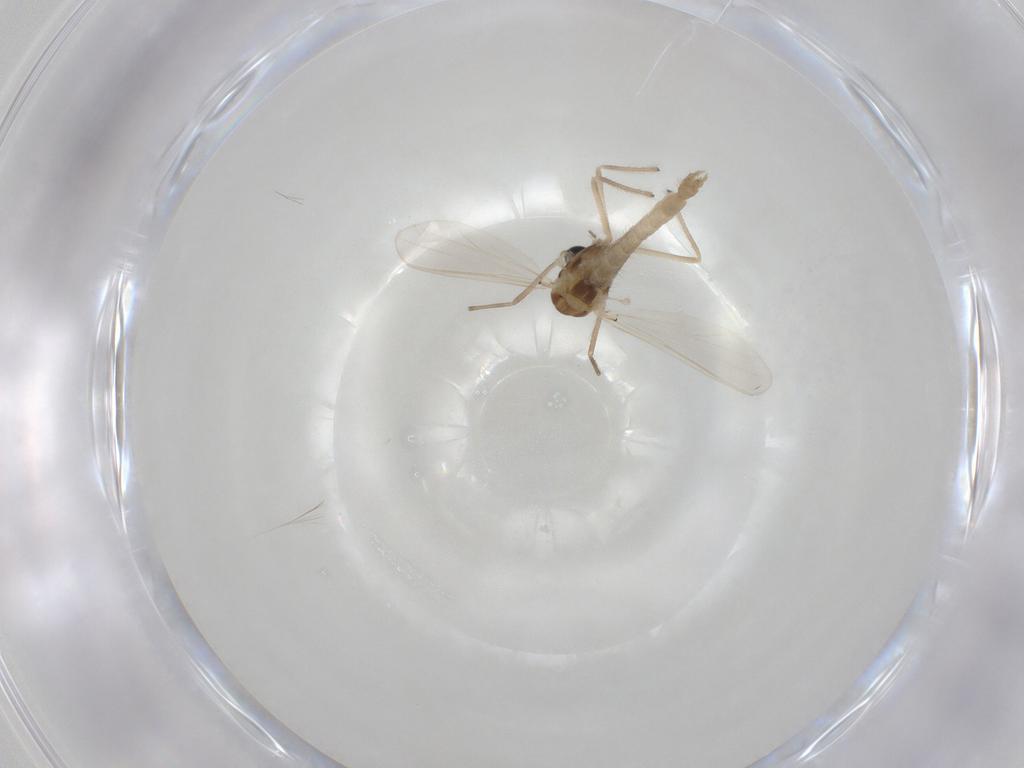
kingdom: Animalia
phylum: Arthropoda
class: Insecta
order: Diptera
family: Chironomidae
